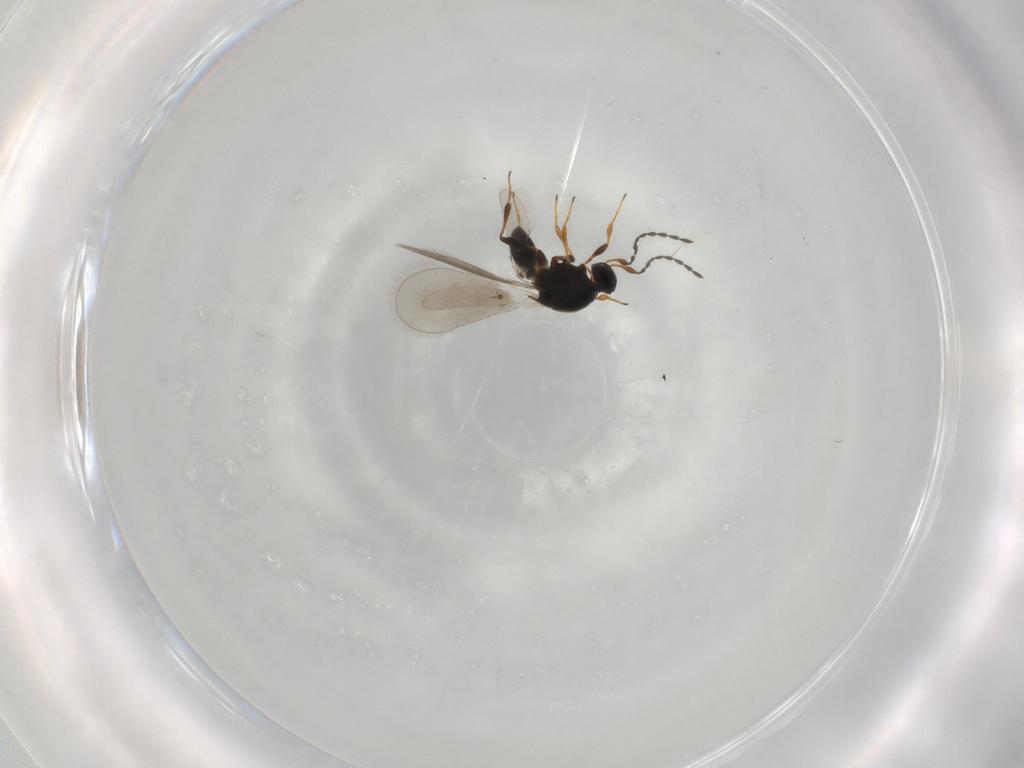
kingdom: Animalia
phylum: Arthropoda
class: Insecta
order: Hymenoptera
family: Platygastridae
